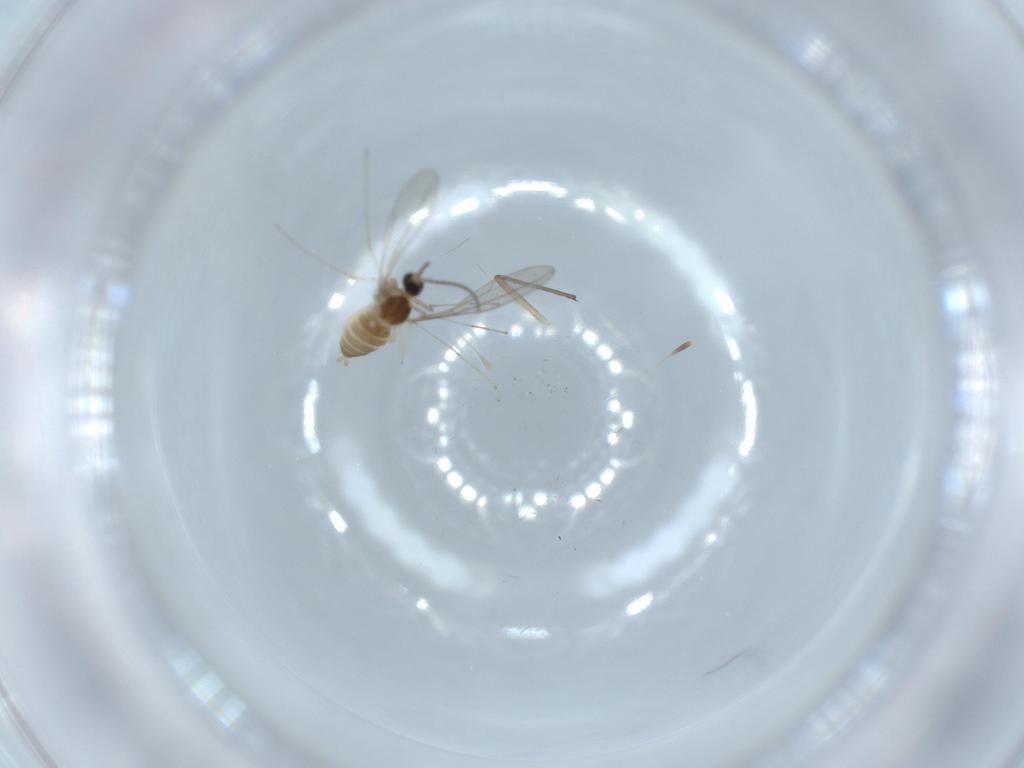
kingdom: Animalia
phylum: Arthropoda
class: Insecta
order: Diptera
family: Cecidomyiidae
